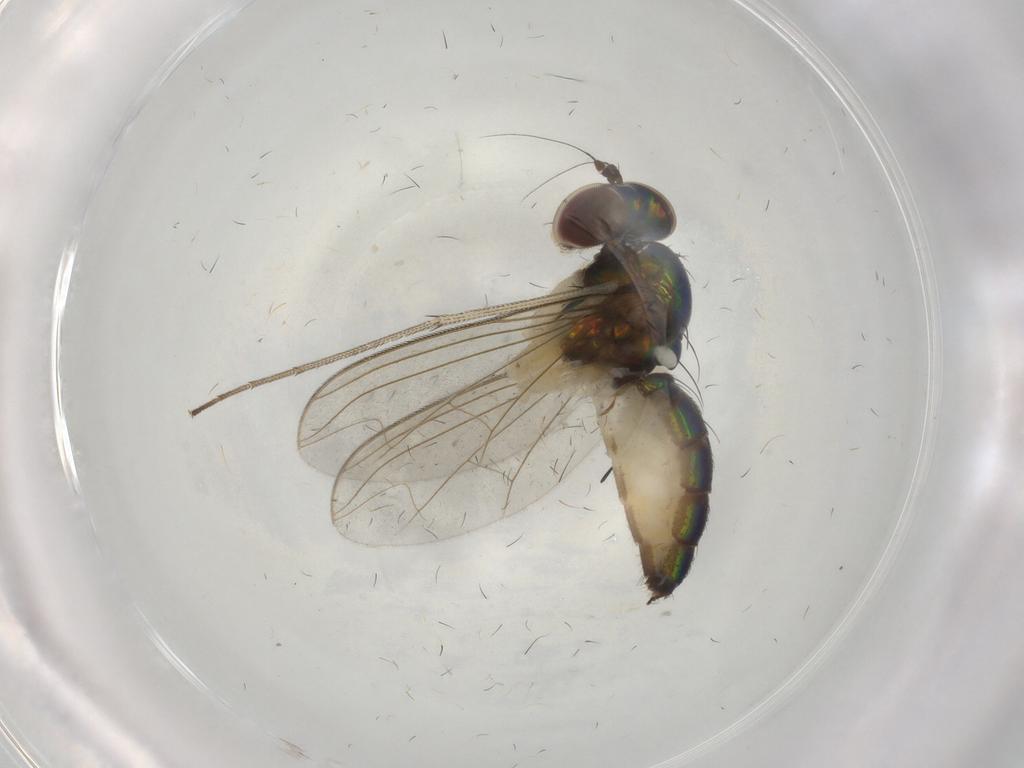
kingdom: Animalia
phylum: Arthropoda
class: Insecta
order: Diptera
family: Dolichopodidae
